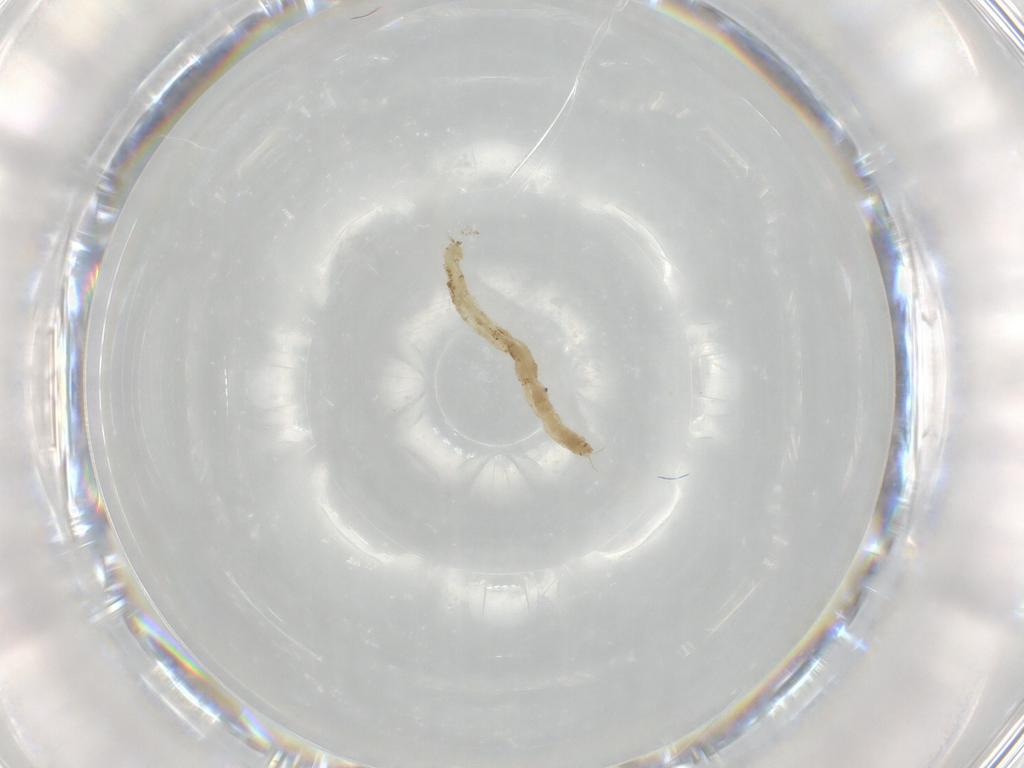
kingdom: Animalia
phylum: Arthropoda
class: Insecta
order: Diptera
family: Chironomidae
